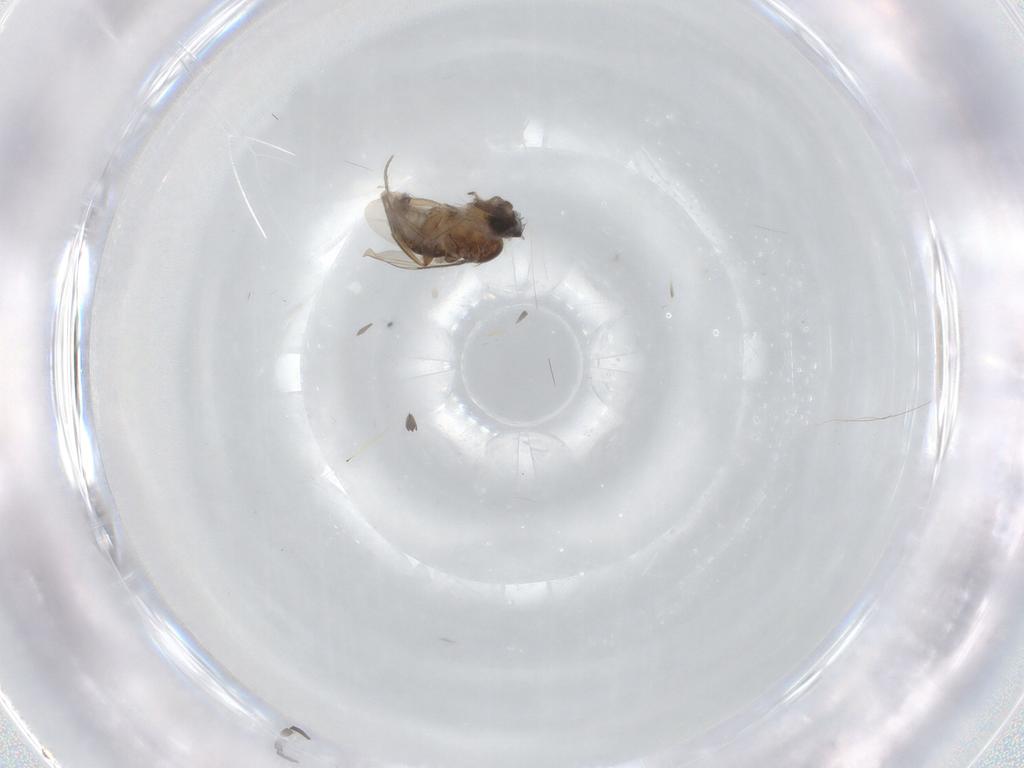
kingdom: Animalia
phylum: Arthropoda
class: Insecta
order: Diptera
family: Phoridae
